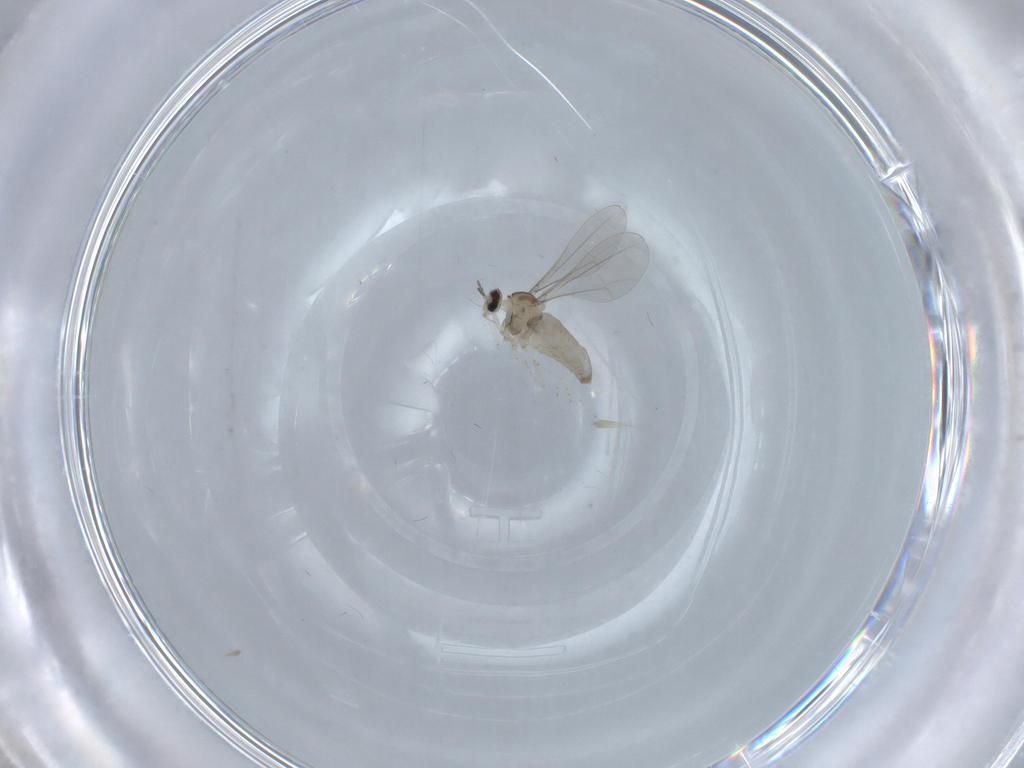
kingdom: Animalia
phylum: Arthropoda
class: Insecta
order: Diptera
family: Cecidomyiidae
